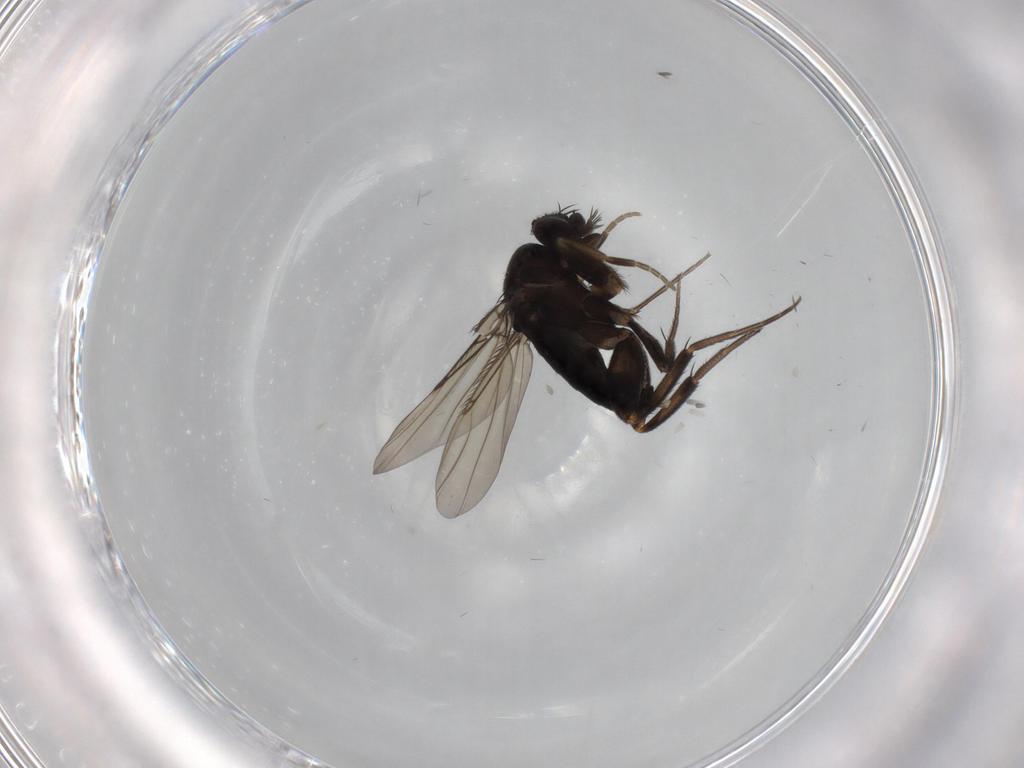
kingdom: Animalia
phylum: Arthropoda
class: Insecta
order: Diptera
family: Phoridae
